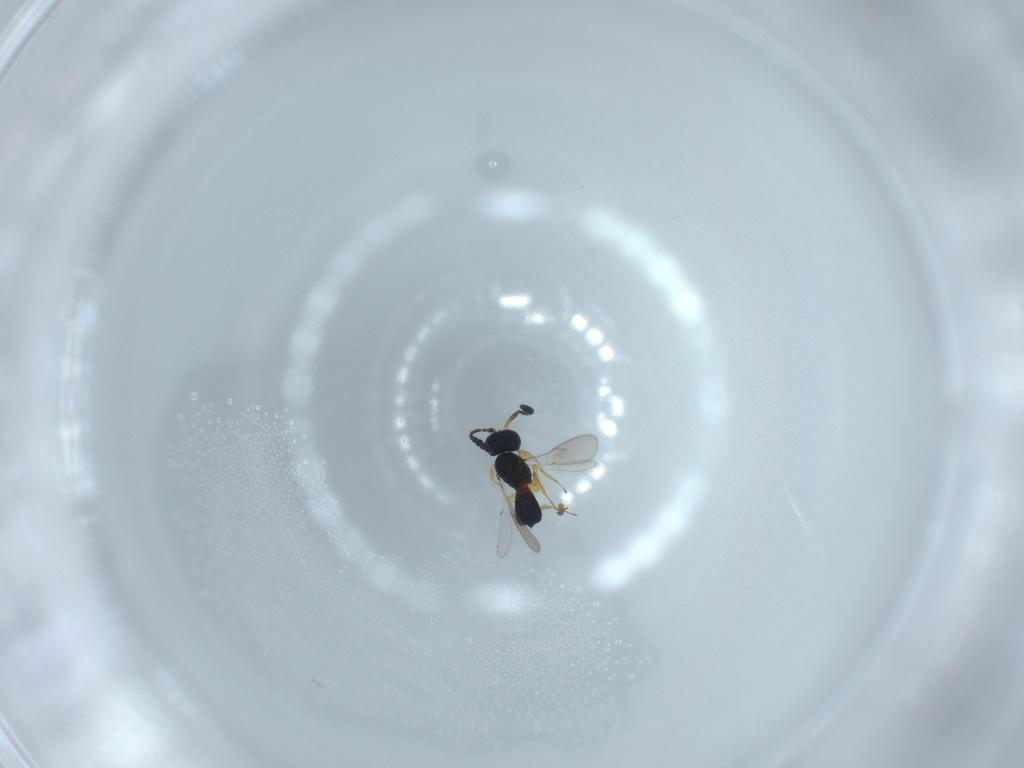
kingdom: Animalia
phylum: Arthropoda
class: Insecta
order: Hymenoptera
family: Scelionidae
